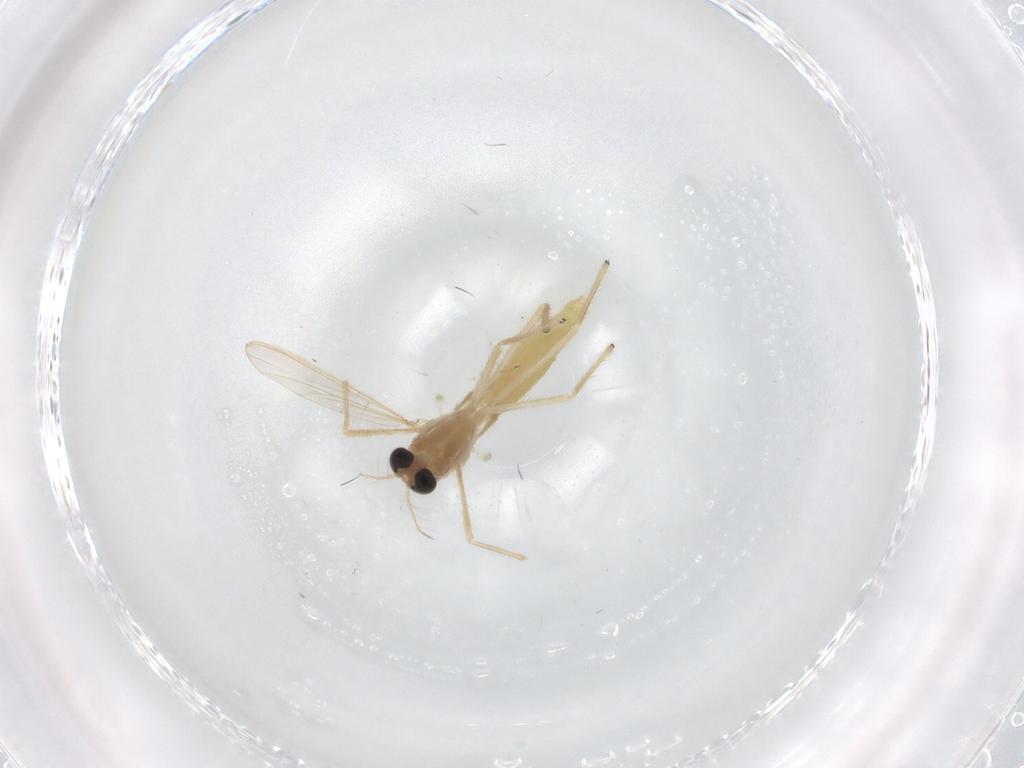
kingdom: Animalia
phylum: Arthropoda
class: Insecta
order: Diptera
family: Chironomidae
